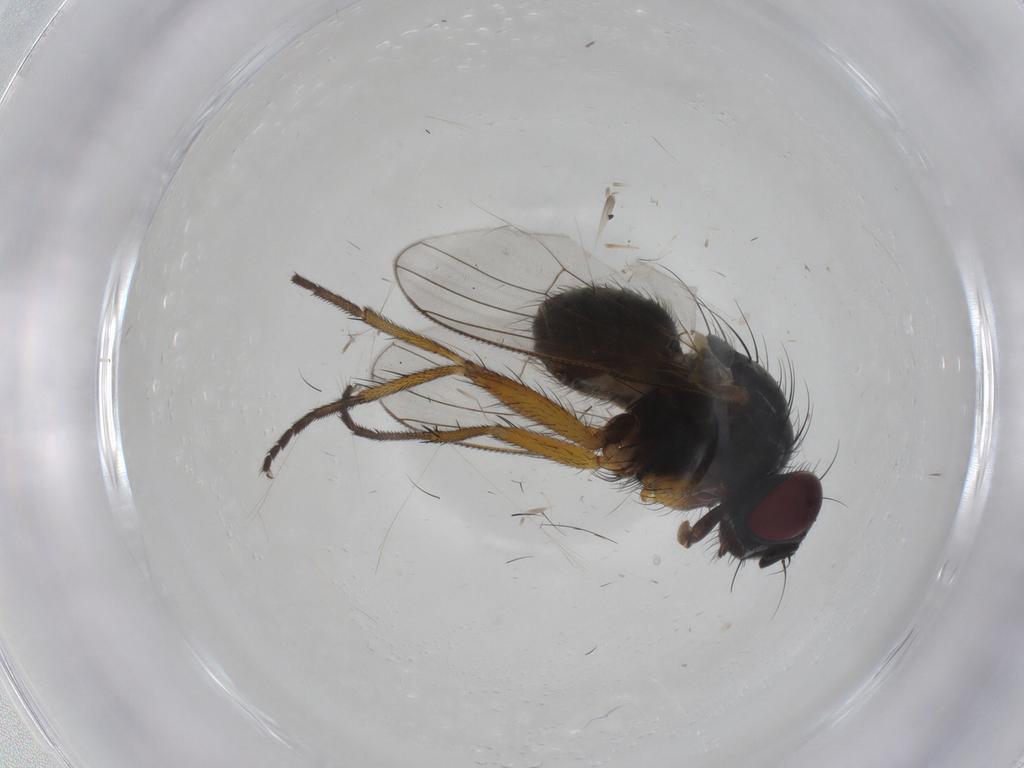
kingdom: Animalia
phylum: Arthropoda
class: Insecta
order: Diptera
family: Muscidae
